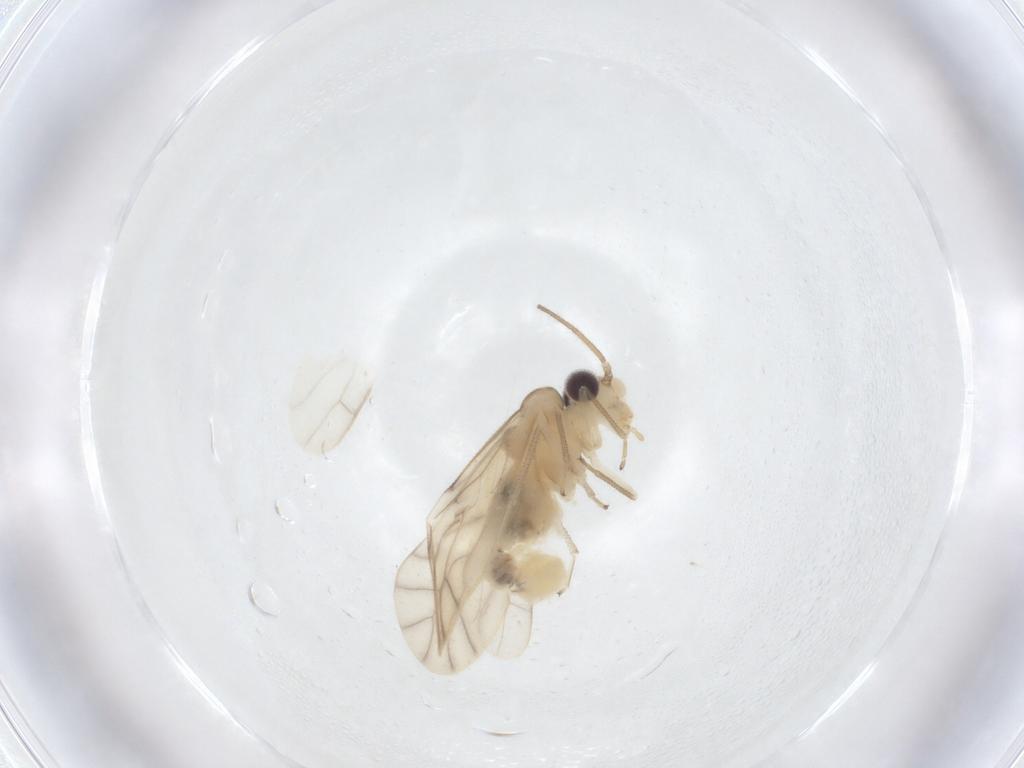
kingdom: Animalia
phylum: Arthropoda
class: Insecta
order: Psocodea
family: Caeciliusidae
